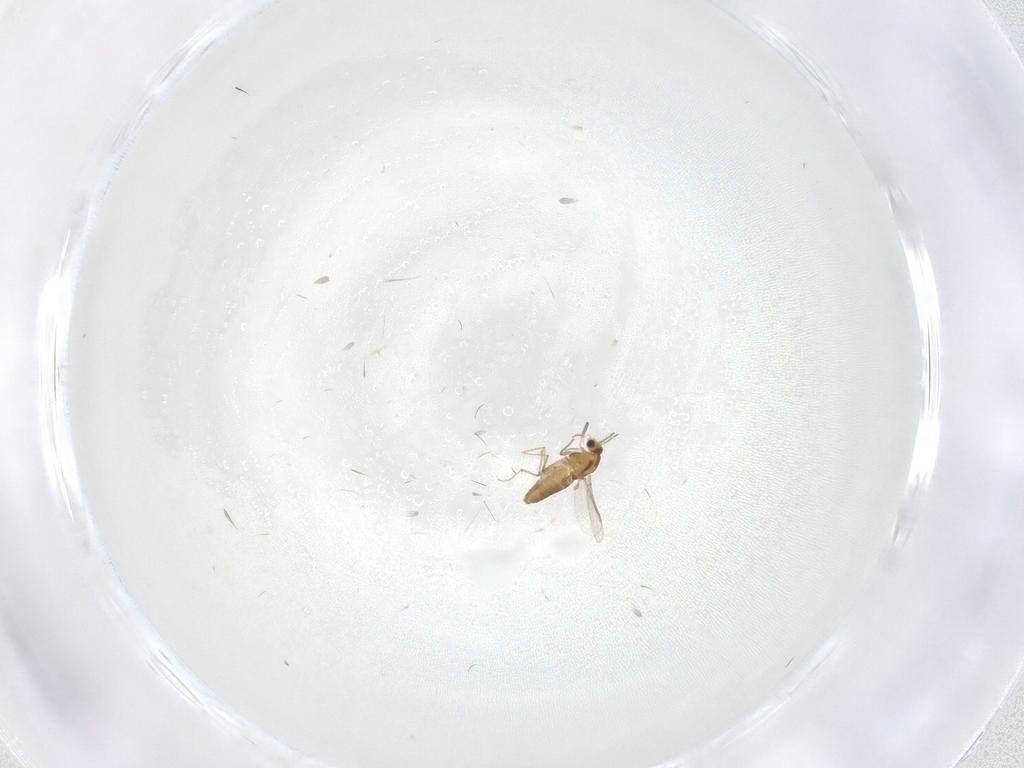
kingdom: Animalia
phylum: Arthropoda
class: Insecta
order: Diptera
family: Chironomidae
